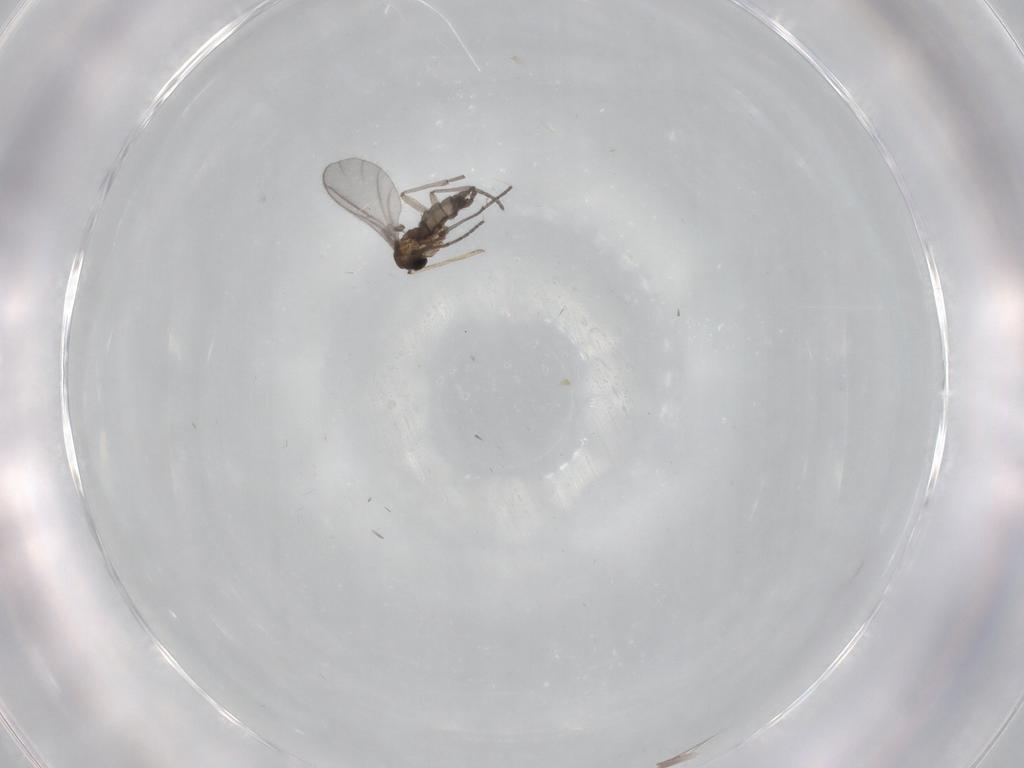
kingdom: Animalia
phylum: Arthropoda
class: Insecta
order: Diptera
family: Sciaridae
